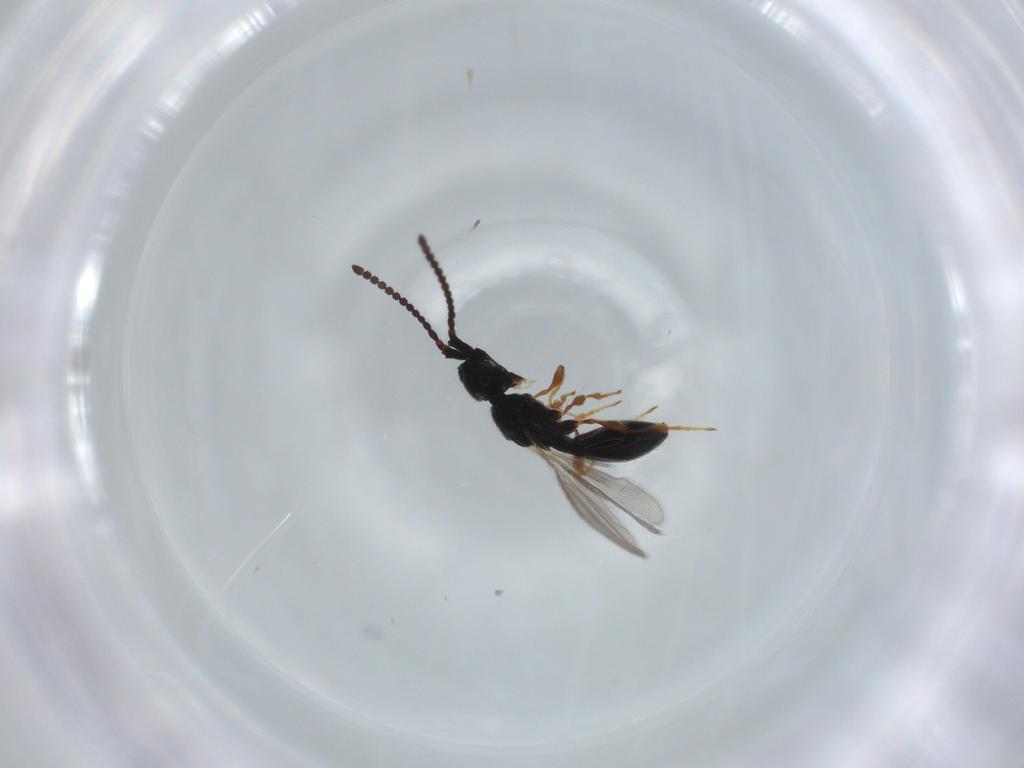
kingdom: Animalia
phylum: Arthropoda
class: Insecta
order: Hymenoptera
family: Diapriidae
